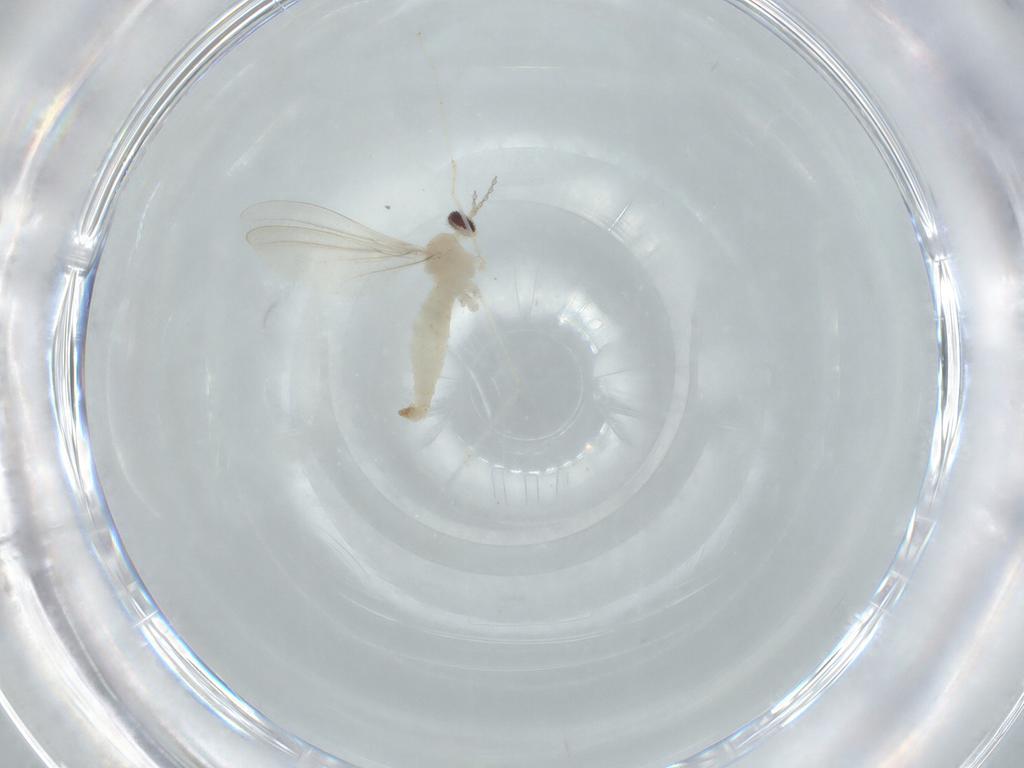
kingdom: Animalia
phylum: Arthropoda
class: Insecta
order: Diptera
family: Cecidomyiidae
